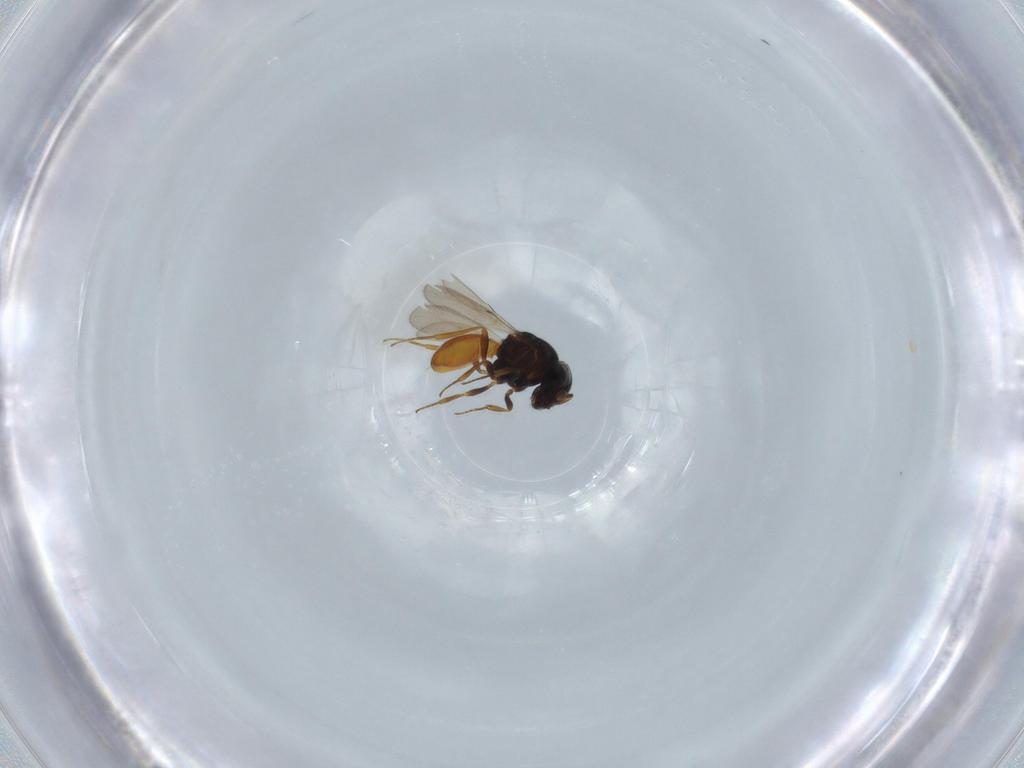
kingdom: Animalia
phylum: Arthropoda
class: Insecta
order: Hymenoptera
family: Scelionidae
